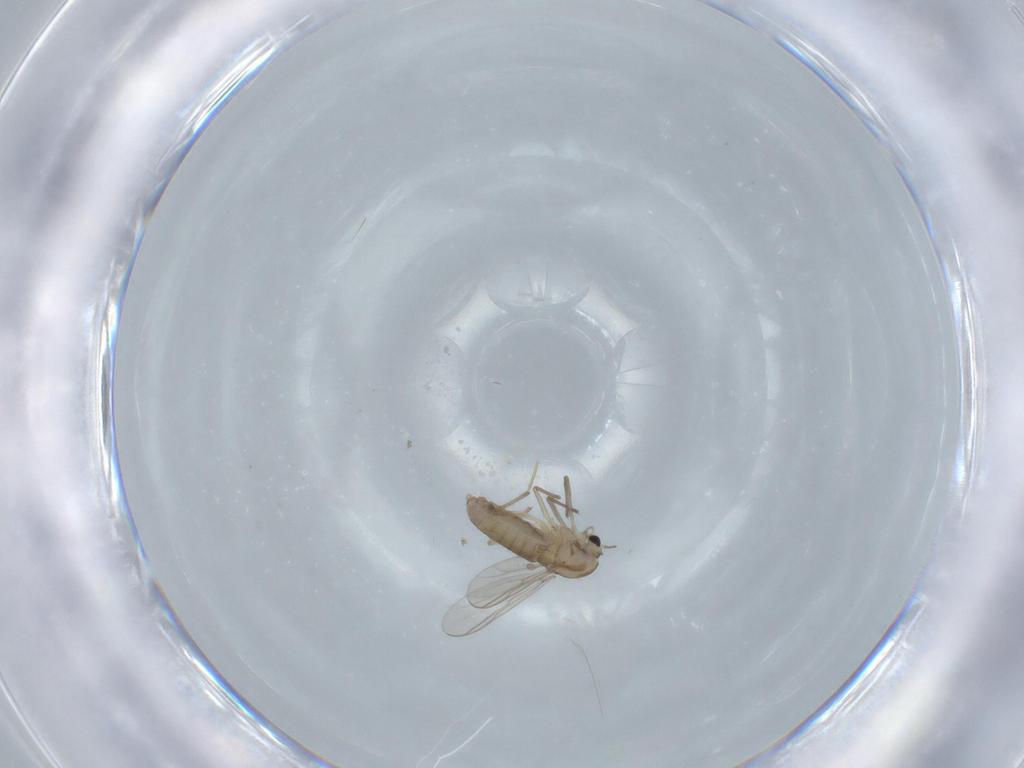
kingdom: Animalia
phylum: Arthropoda
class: Insecta
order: Diptera
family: Chironomidae
